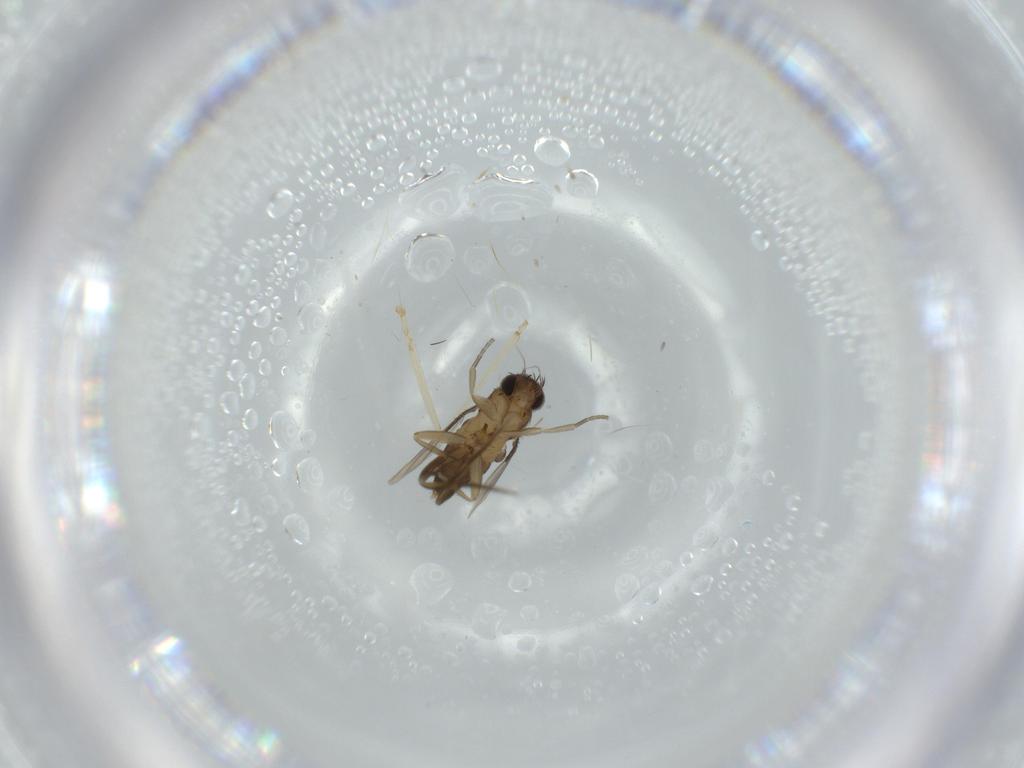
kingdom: Animalia
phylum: Arthropoda
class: Insecta
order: Diptera
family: Phoridae
